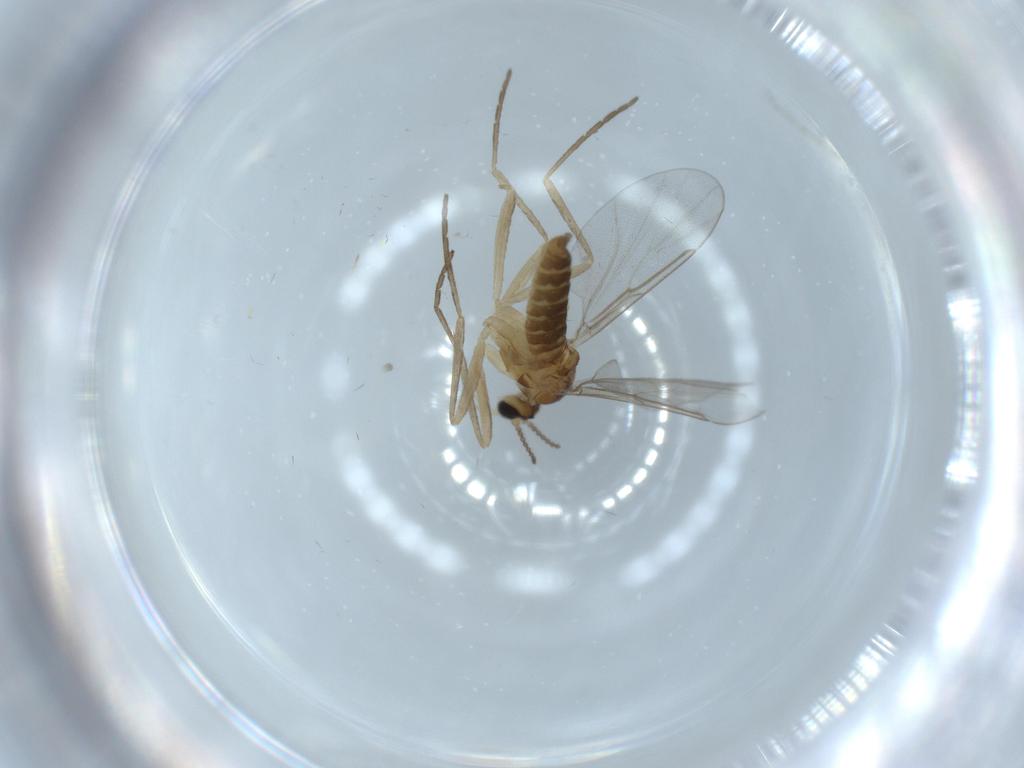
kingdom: Animalia
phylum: Arthropoda
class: Insecta
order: Diptera
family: Cecidomyiidae
